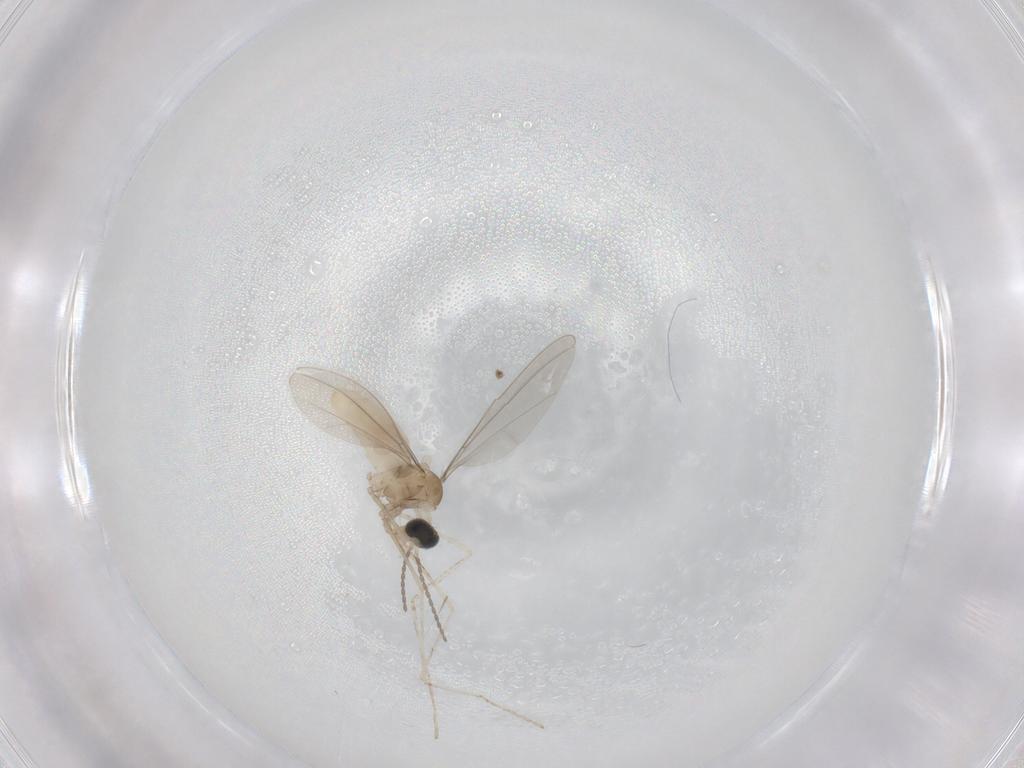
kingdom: Animalia
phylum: Arthropoda
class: Insecta
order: Diptera
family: Cecidomyiidae
